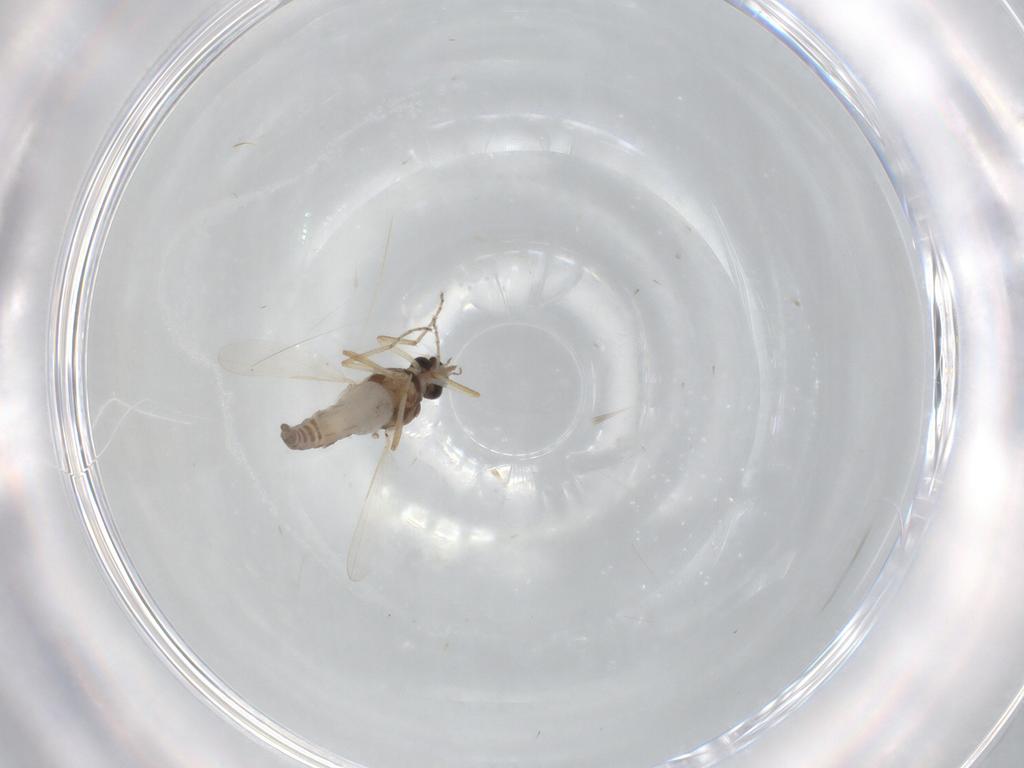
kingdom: Animalia
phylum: Arthropoda
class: Insecta
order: Diptera
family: Ceratopogonidae
